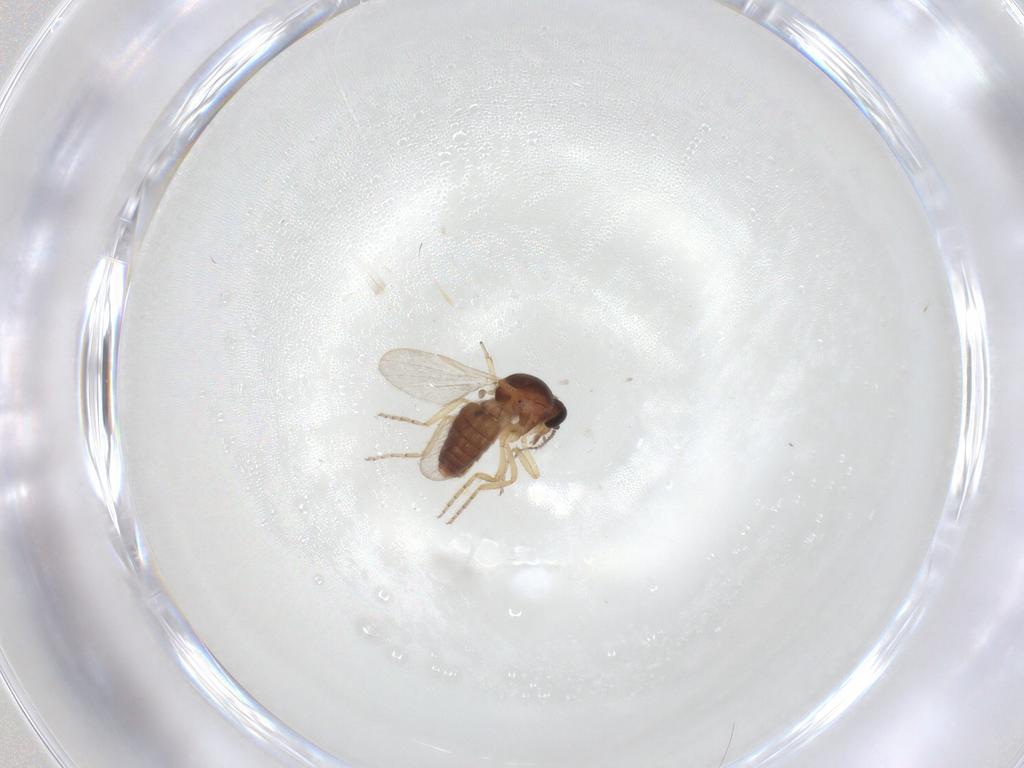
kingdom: Animalia
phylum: Arthropoda
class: Insecta
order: Diptera
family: Ceratopogonidae
